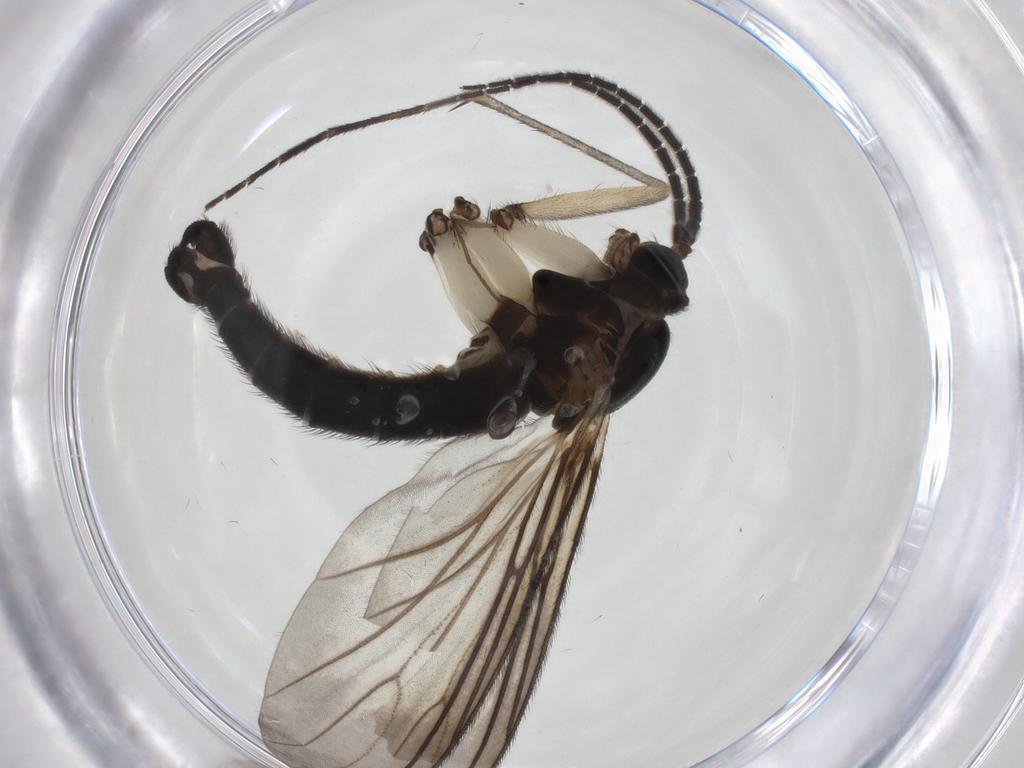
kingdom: Animalia
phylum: Arthropoda
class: Insecta
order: Diptera
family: Sciaridae
